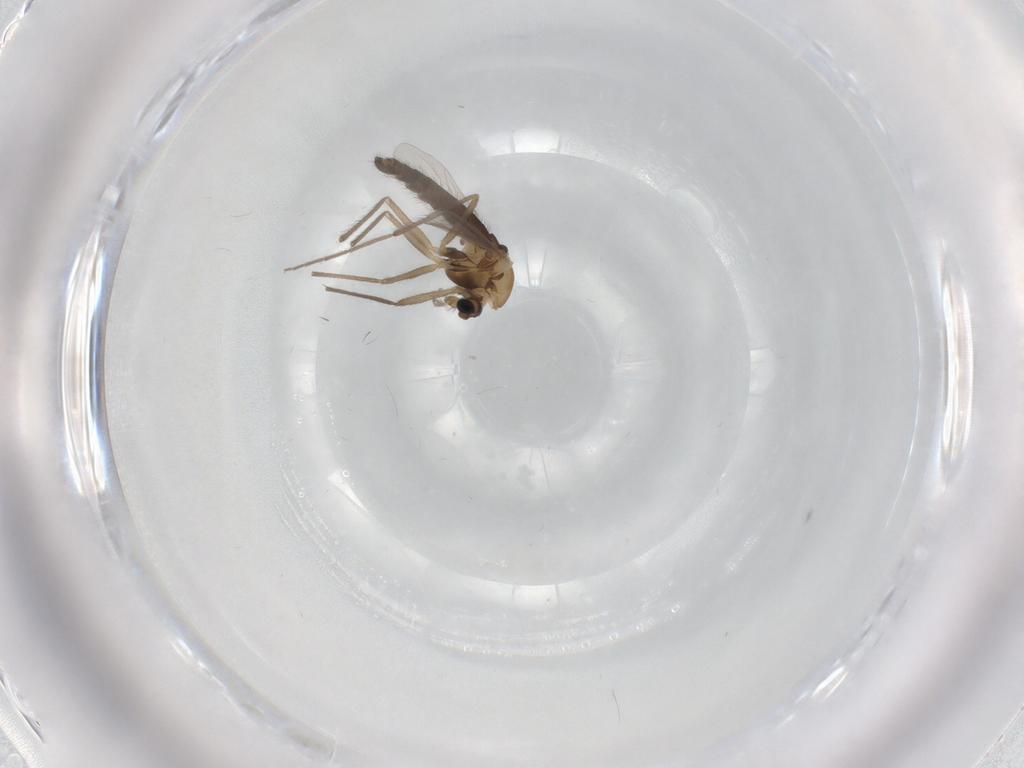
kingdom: Animalia
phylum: Arthropoda
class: Insecta
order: Diptera
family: Chironomidae
